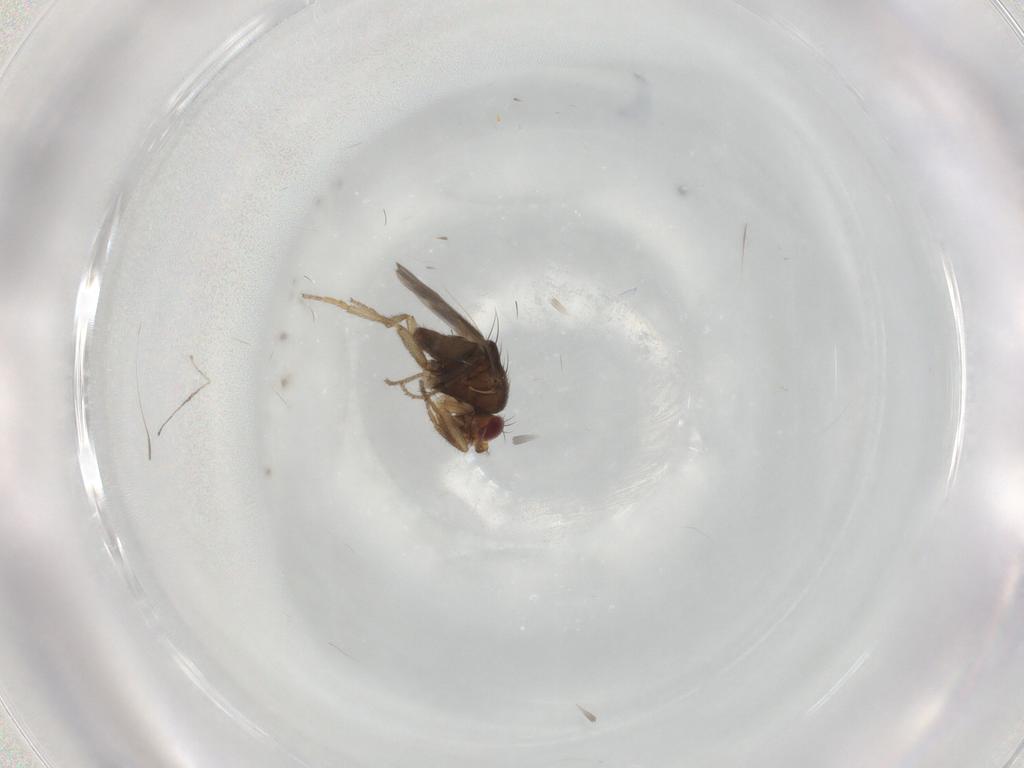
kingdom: Animalia
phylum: Arthropoda
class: Insecta
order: Diptera
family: Sphaeroceridae
